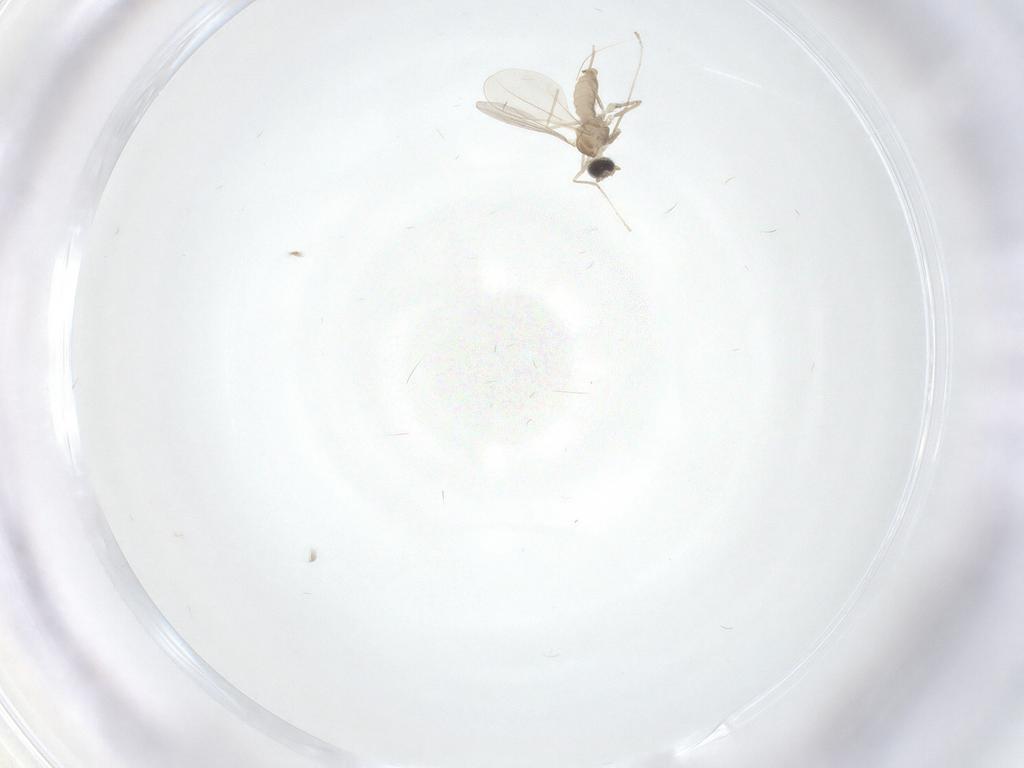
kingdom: Animalia
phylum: Arthropoda
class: Insecta
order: Diptera
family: Cecidomyiidae
